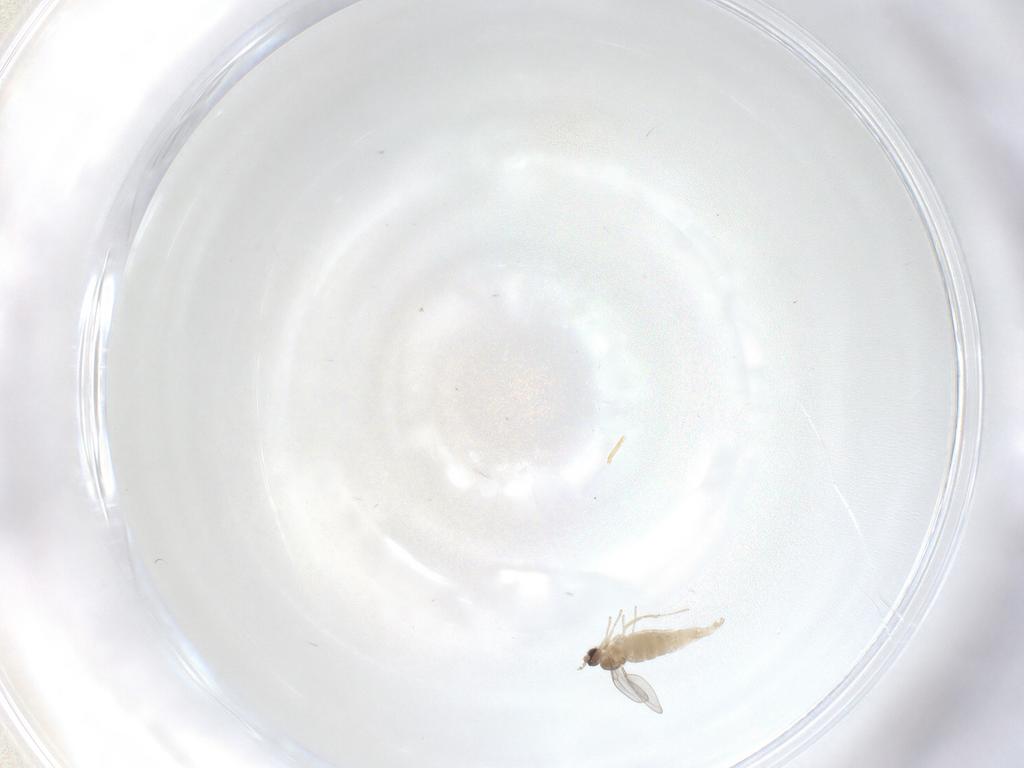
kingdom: Animalia
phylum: Arthropoda
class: Insecta
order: Diptera
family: Cecidomyiidae
